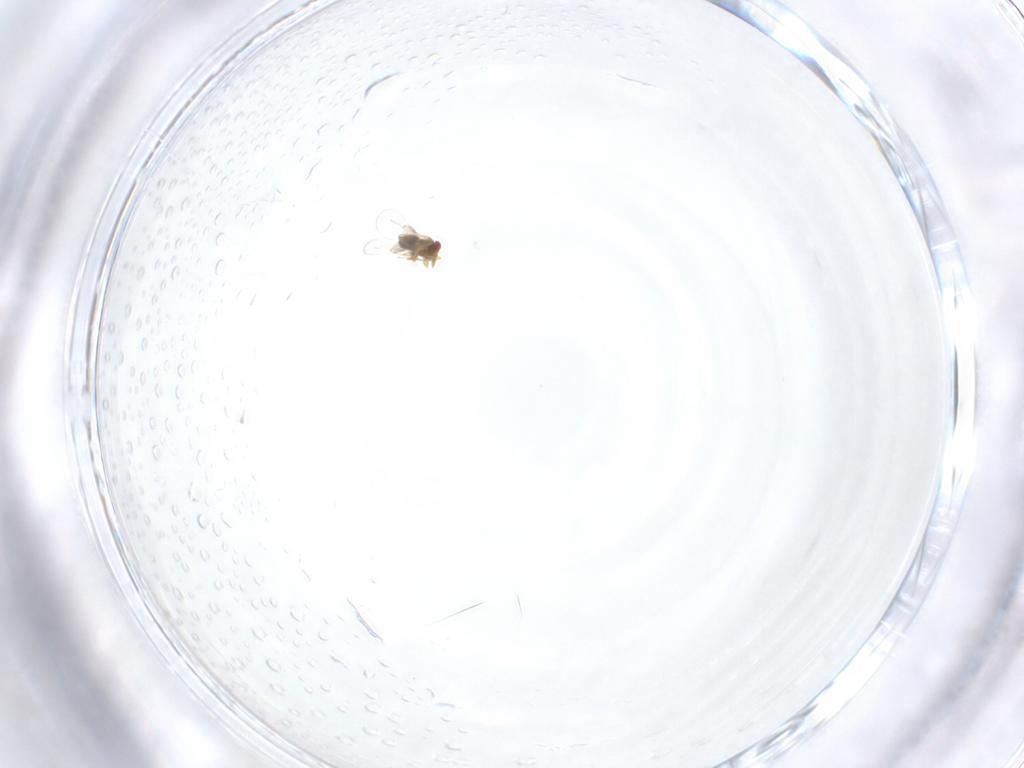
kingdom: Animalia
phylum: Arthropoda
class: Insecta
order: Hymenoptera
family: Trichogrammatidae
